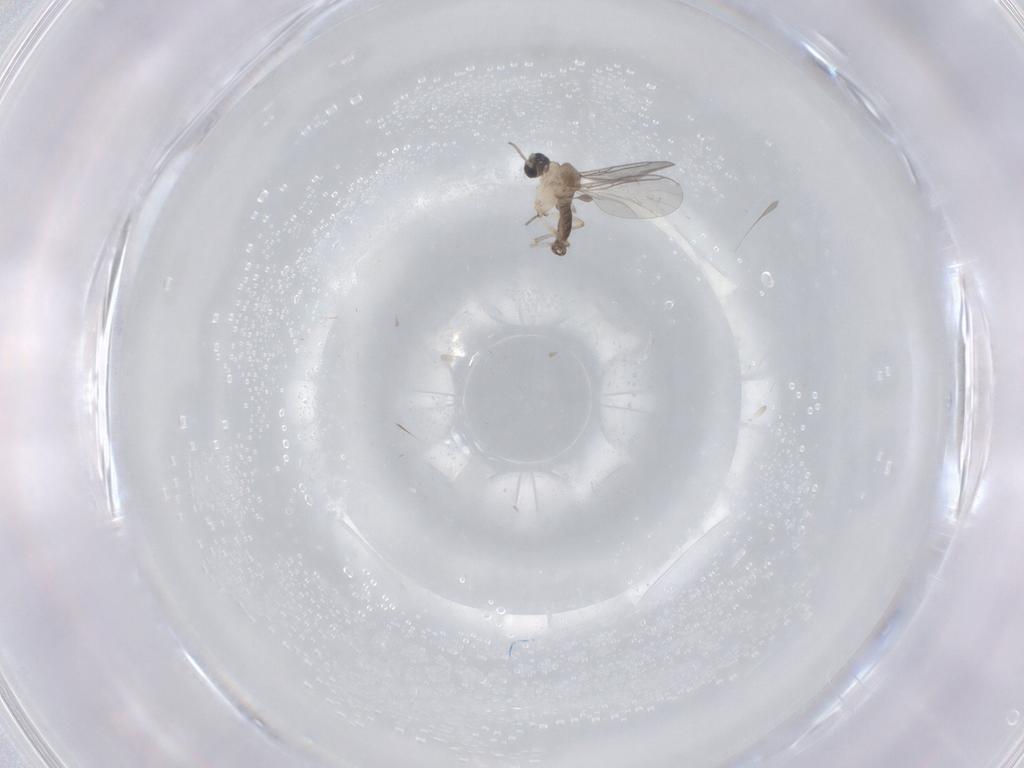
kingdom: Animalia
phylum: Arthropoda
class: Insecta
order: Diptera
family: Sciaridae
